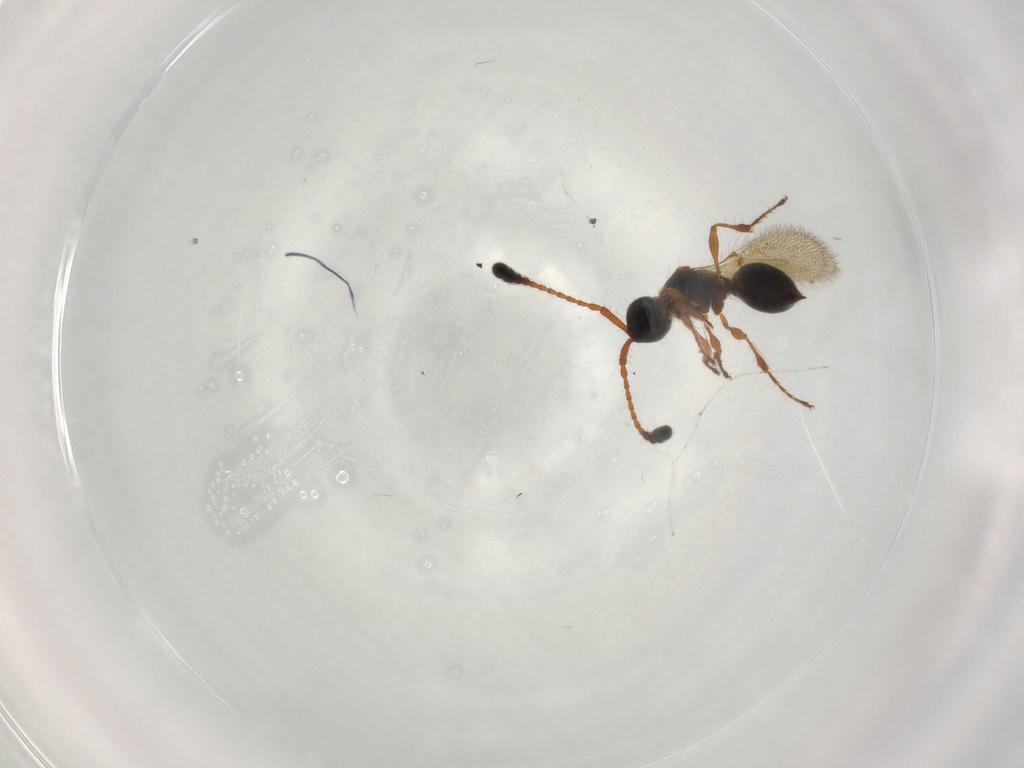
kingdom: Animalia
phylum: Arthropoda
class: Insecta
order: Hymenoptera
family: Diapriidae
